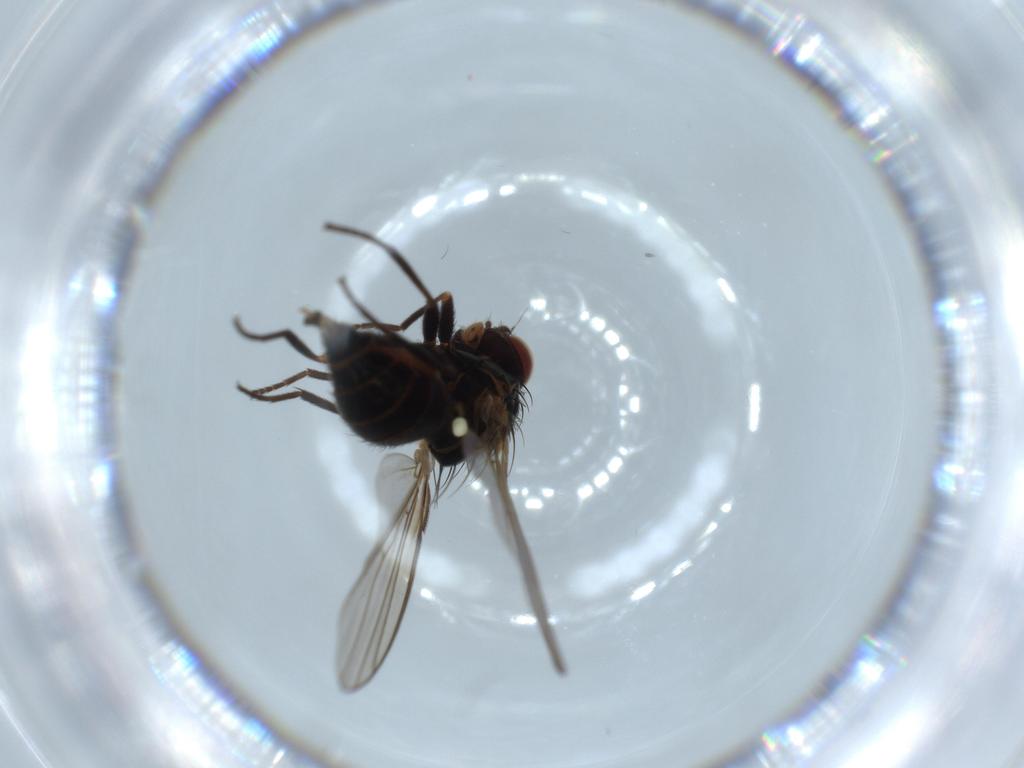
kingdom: Animalia
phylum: Arthropoda
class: Insecta
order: Diptera
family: Agromyzidae
